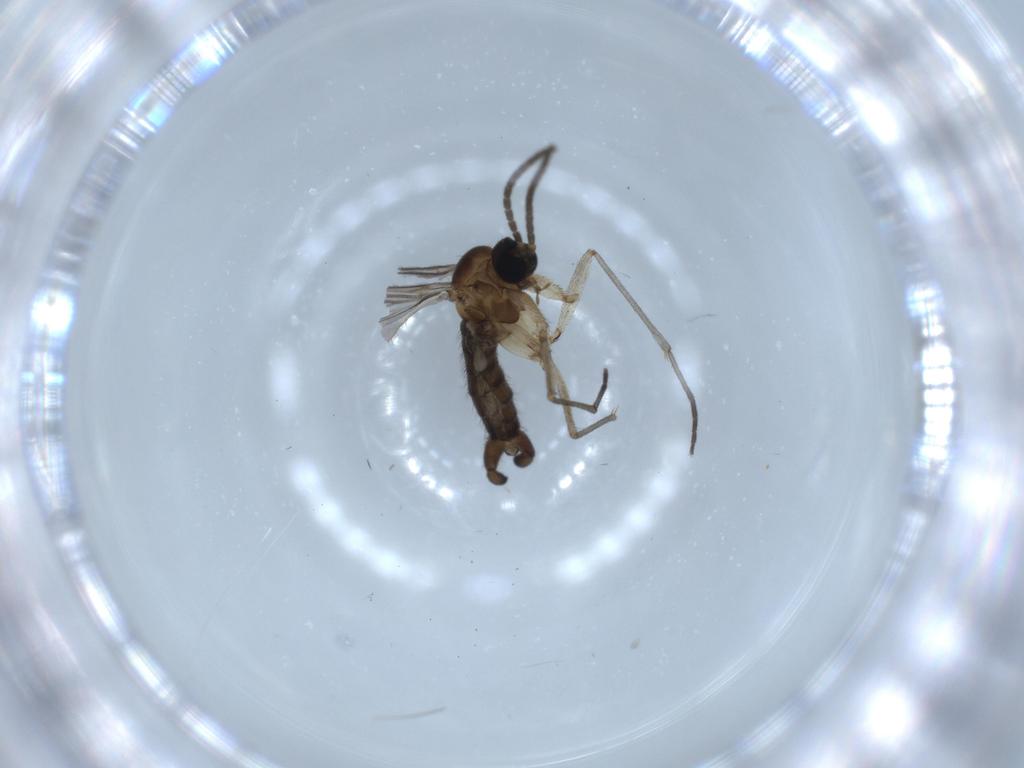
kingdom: Animalia
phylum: Arthropoda
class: Insecta
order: Diptera
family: Sciaridae
